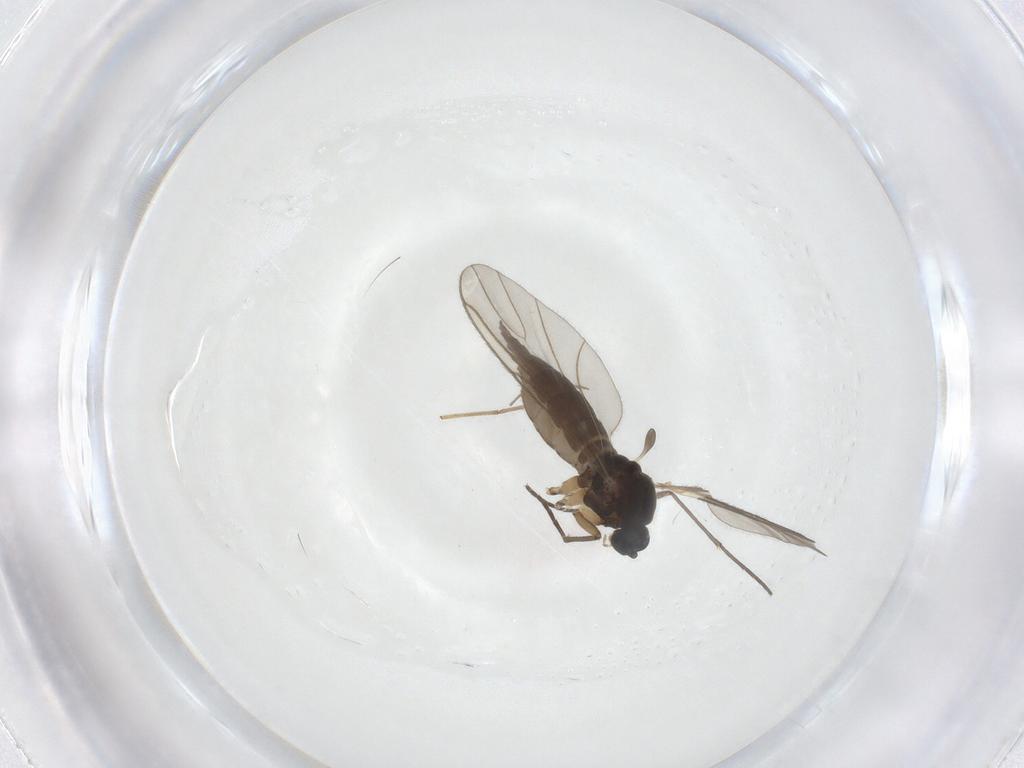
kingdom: Animalia
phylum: Arthropoda
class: Insecta
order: Diptera
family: Sciaridae
